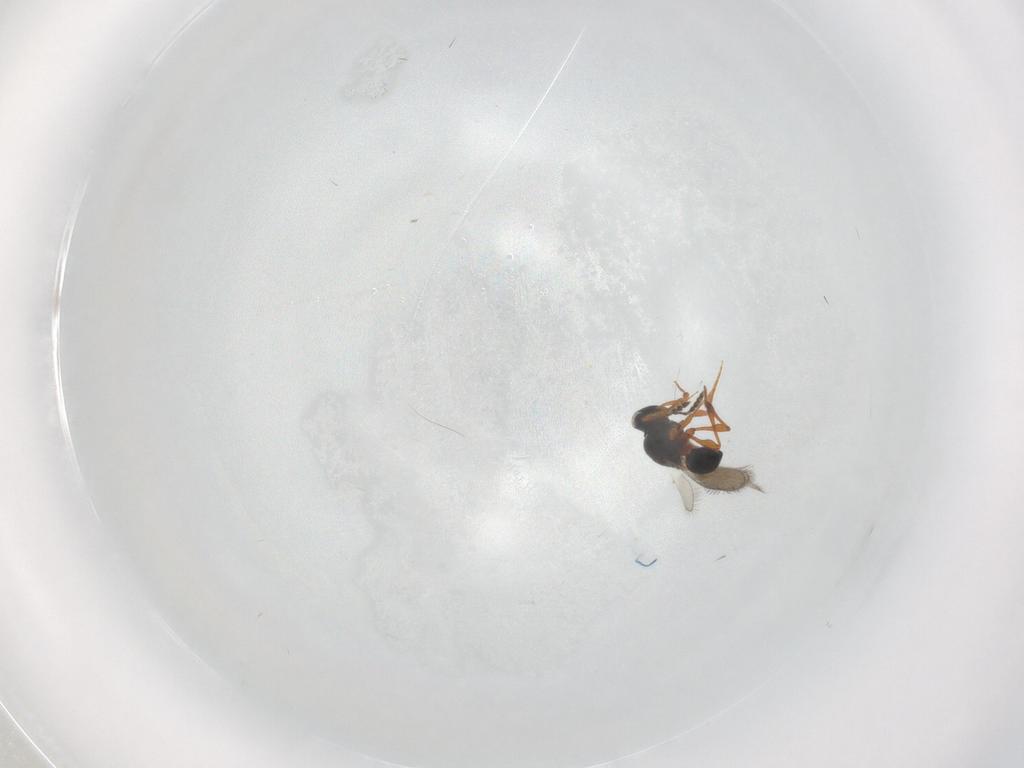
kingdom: Animalia
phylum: Arthropoda
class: Insecta
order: Hymenoptera
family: Platygastridae
